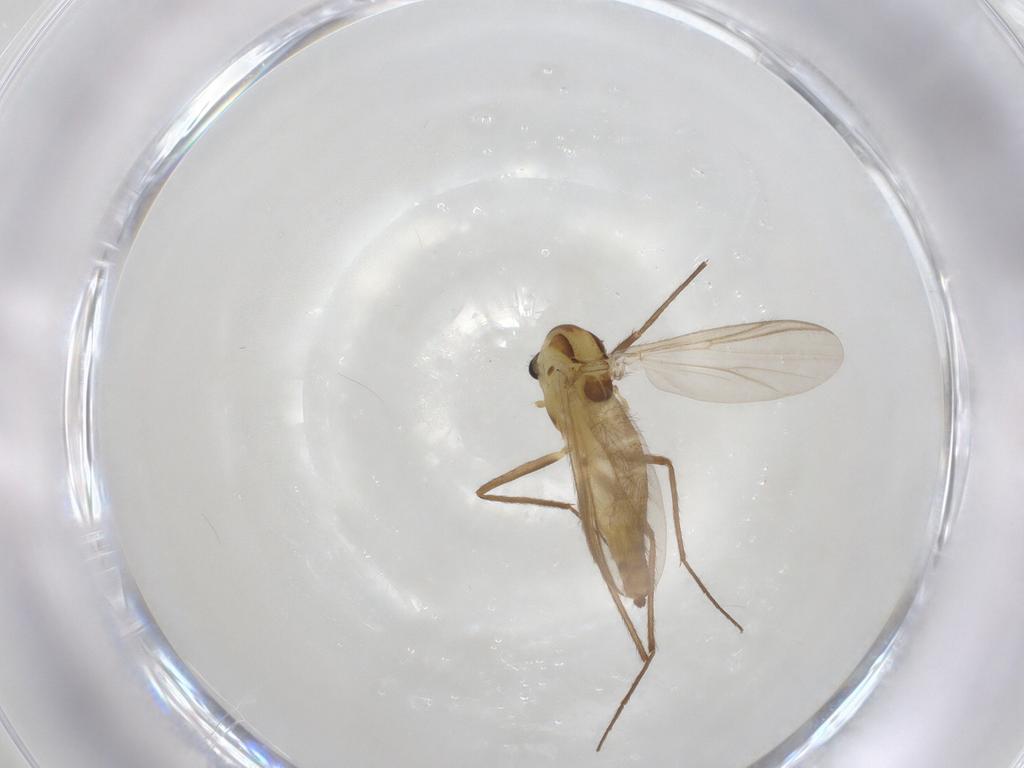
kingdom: Animalia
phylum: Arthropoda
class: Insecta
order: Diptera
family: Chironomidae
